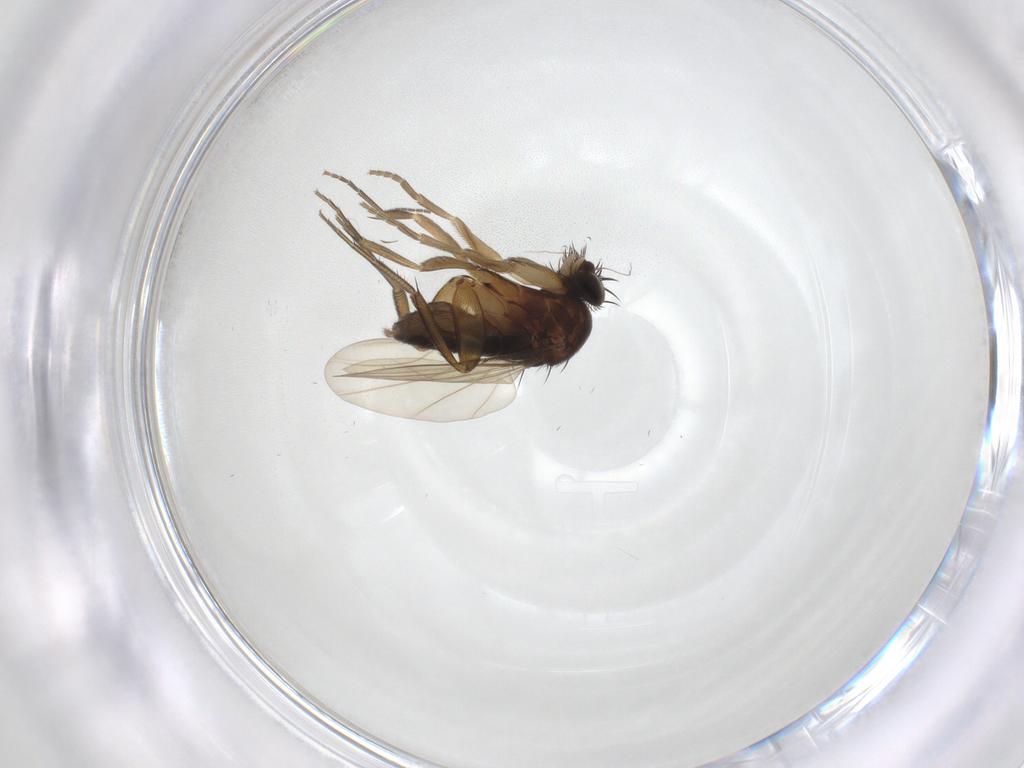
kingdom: Animalia
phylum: Arthropoda
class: Insecta
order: Diptera
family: Phoridae
